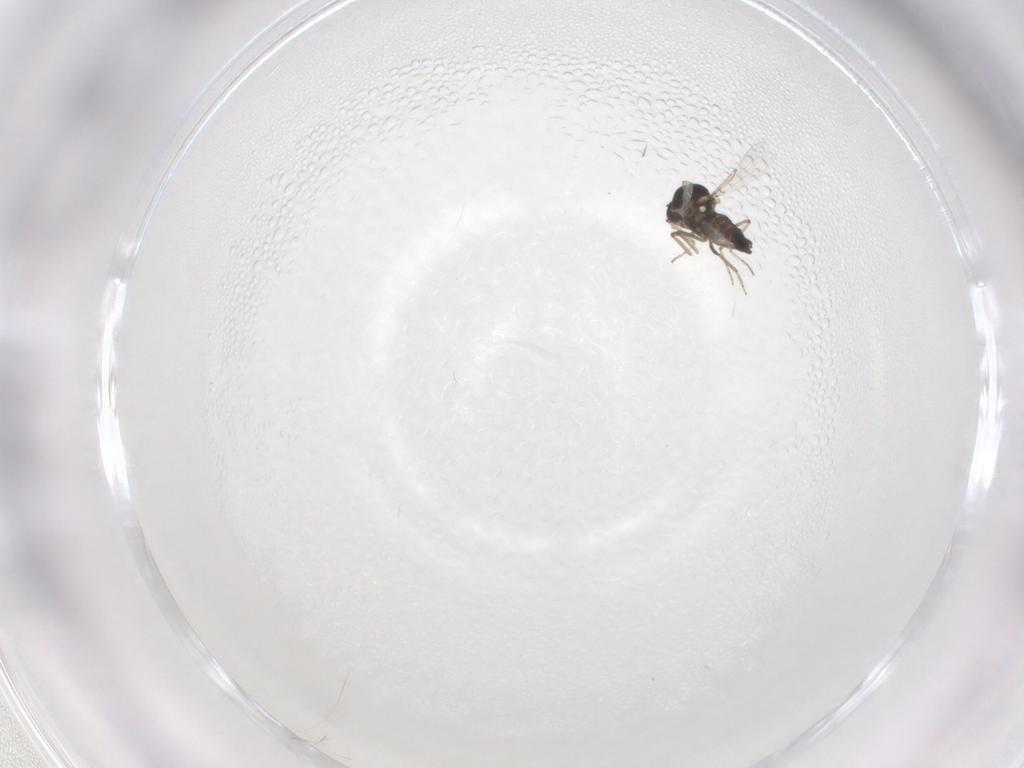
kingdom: Animalia
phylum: Arthropoda
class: Insecta
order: Diptera
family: Ceratopogonidae
